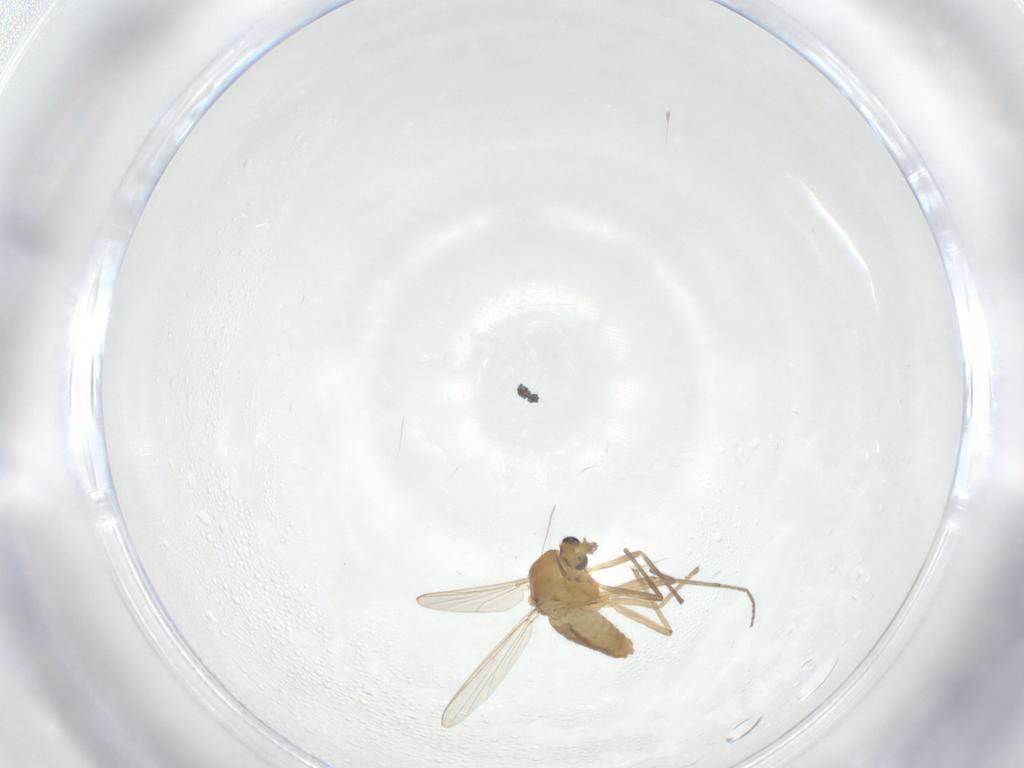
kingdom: Animalia
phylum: Arthropoda
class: Insecta
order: Diptera
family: Chironomidae
